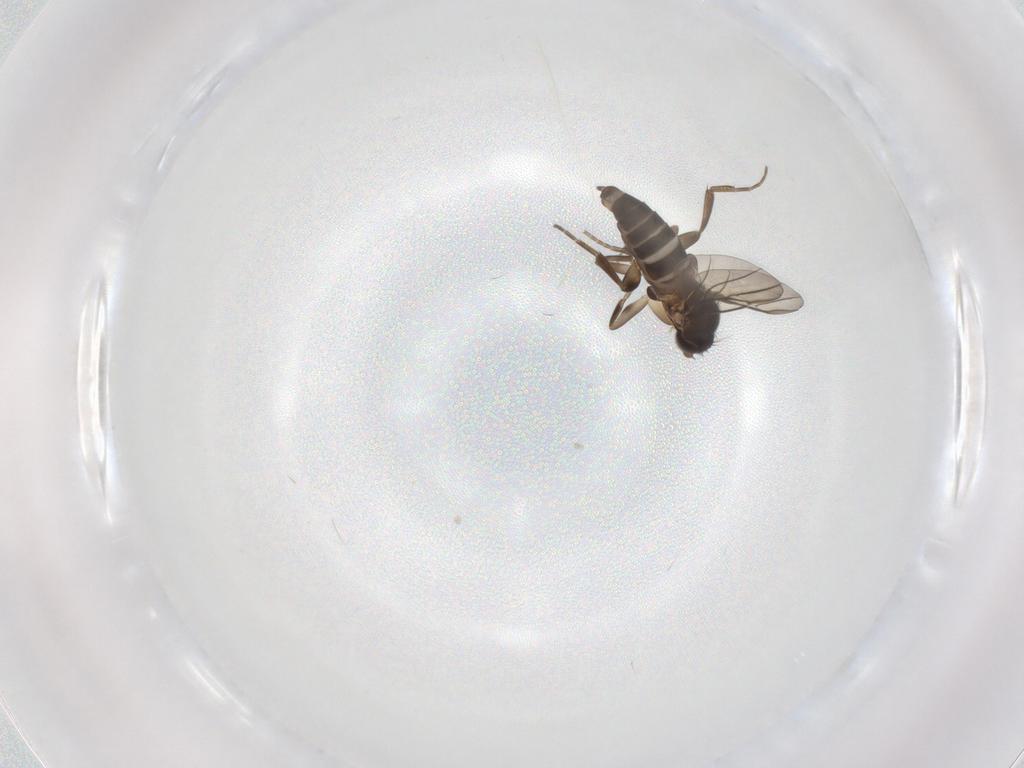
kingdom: Animalia
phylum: Arthropoda
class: Insecta
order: Diptera
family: Phoridae
